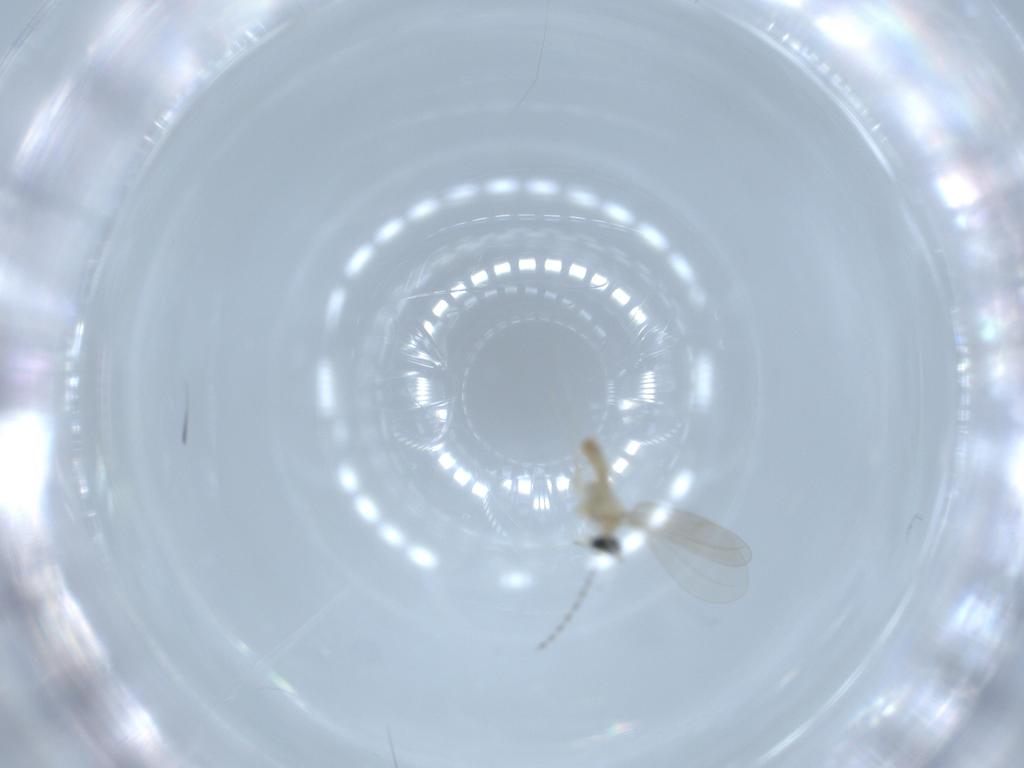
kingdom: Animalia
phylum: Arthropoda
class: Insecta
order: Diptera
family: Cecidomyiidae
